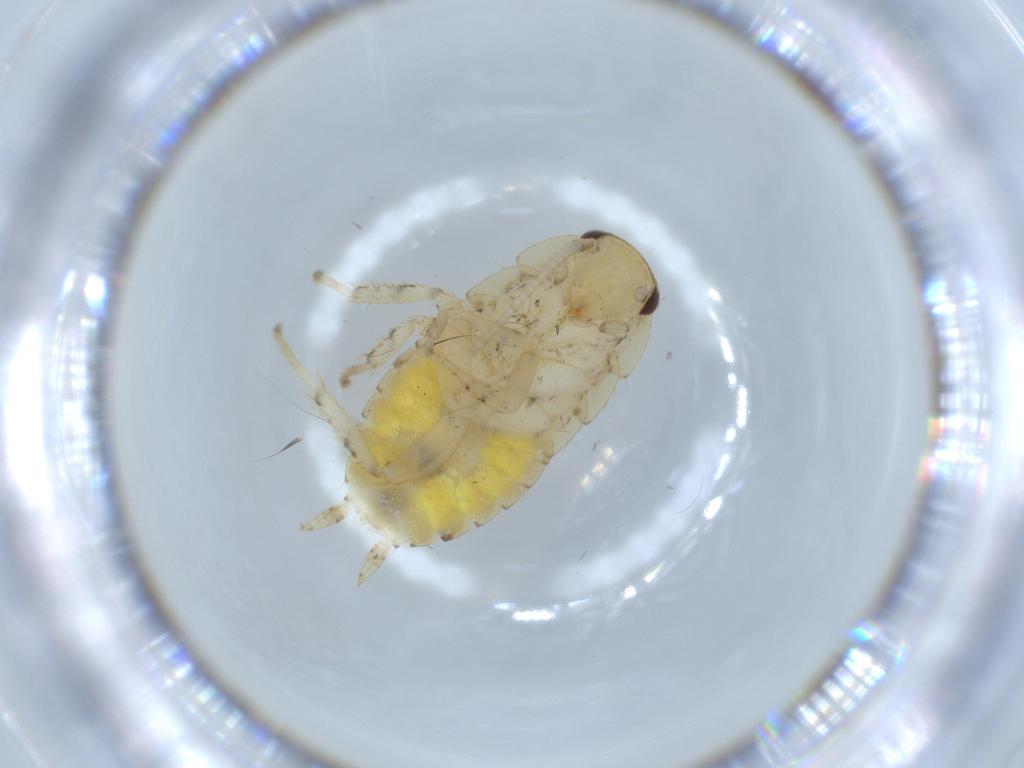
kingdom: Animalia
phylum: Arthropoda
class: Insecta
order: Blattodea
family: Ectobiidae
